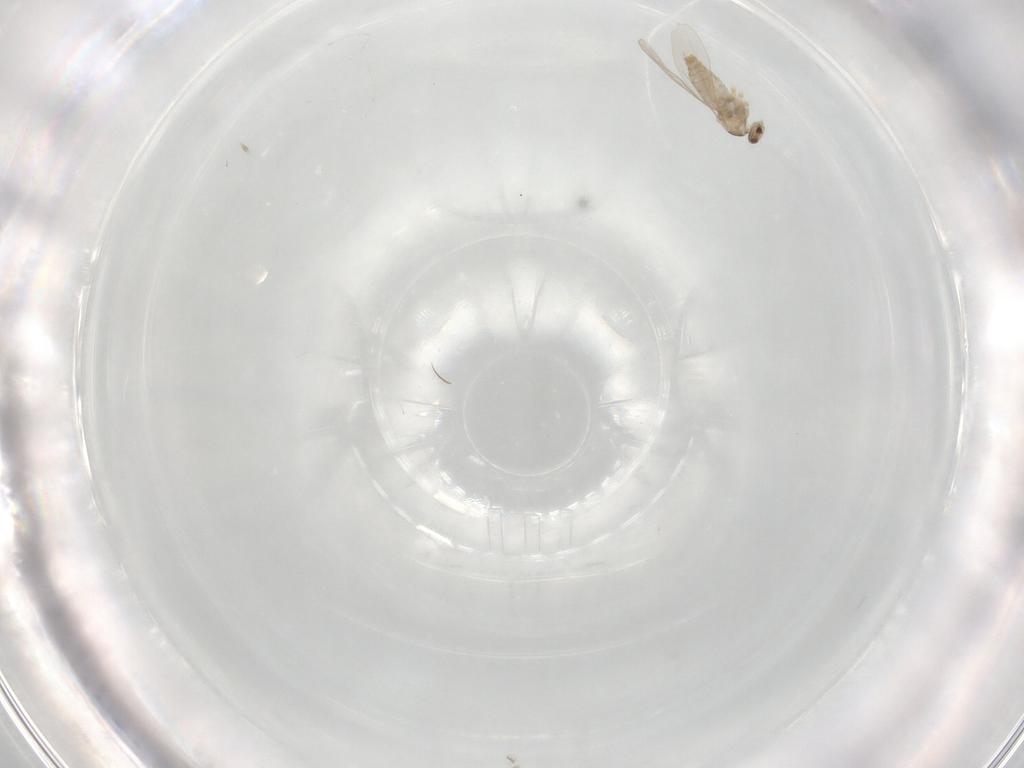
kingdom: Animalia
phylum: Arthropoda
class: Insecta
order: Diptera
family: Cecidomyiidae
